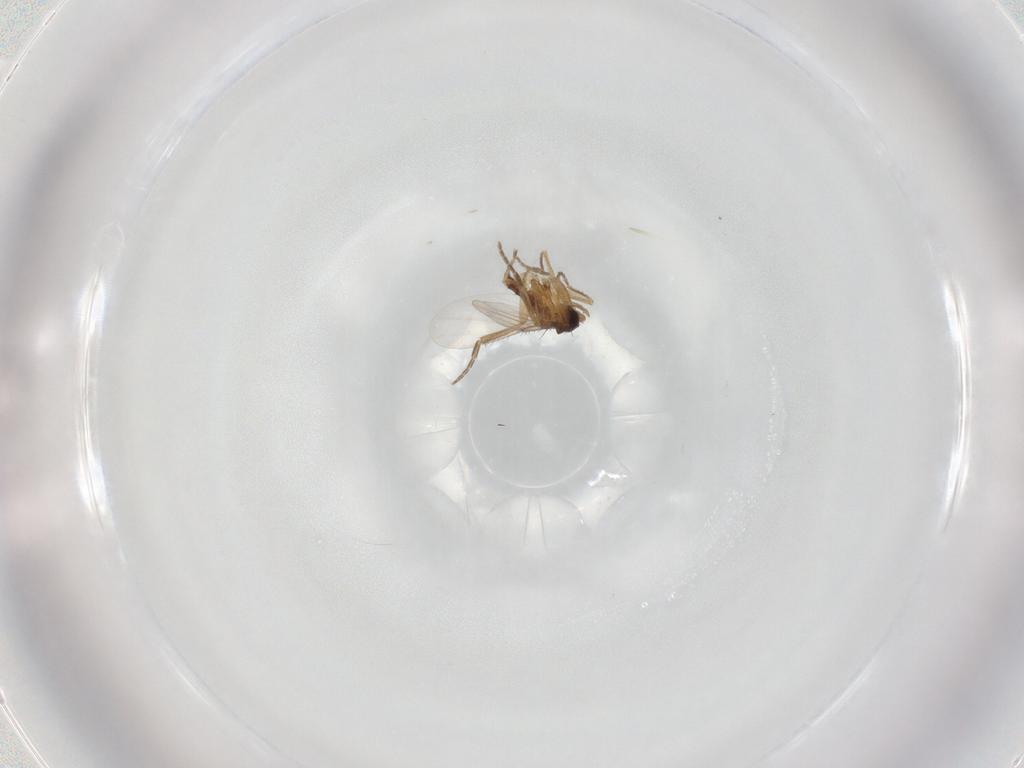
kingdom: Animalia
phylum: Arthropoda
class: Insecta
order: Diptera
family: Phoridae
